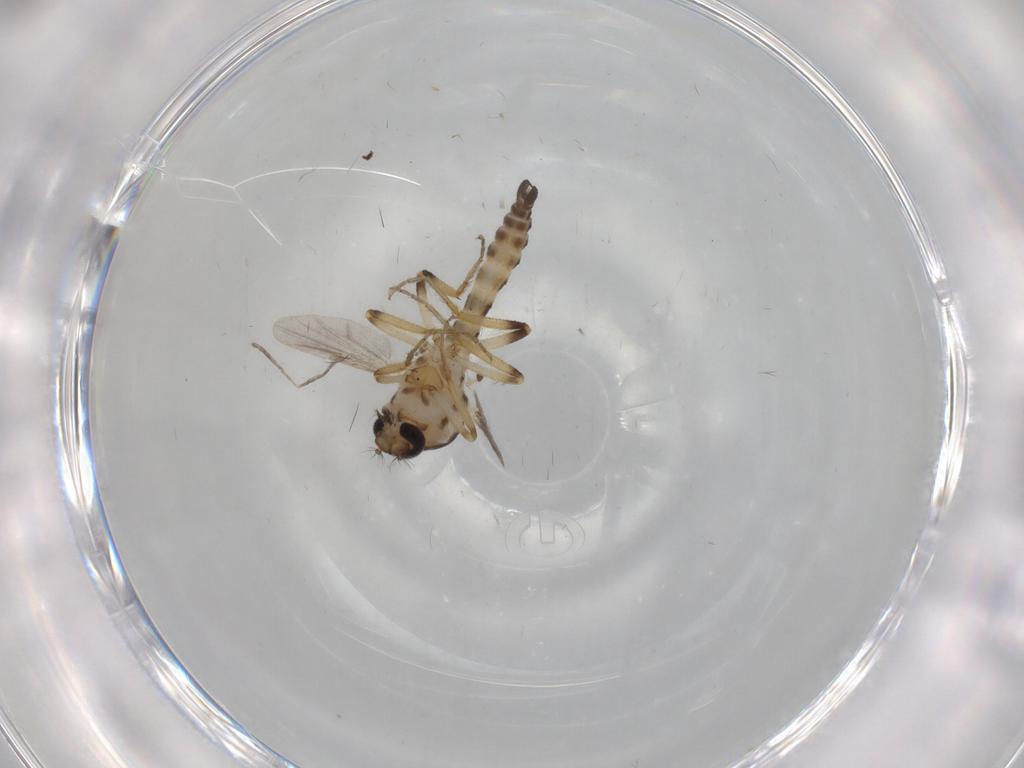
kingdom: Animalia
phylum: Arthropoda
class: Insecta
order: Diptera
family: Ceratopogonidae
